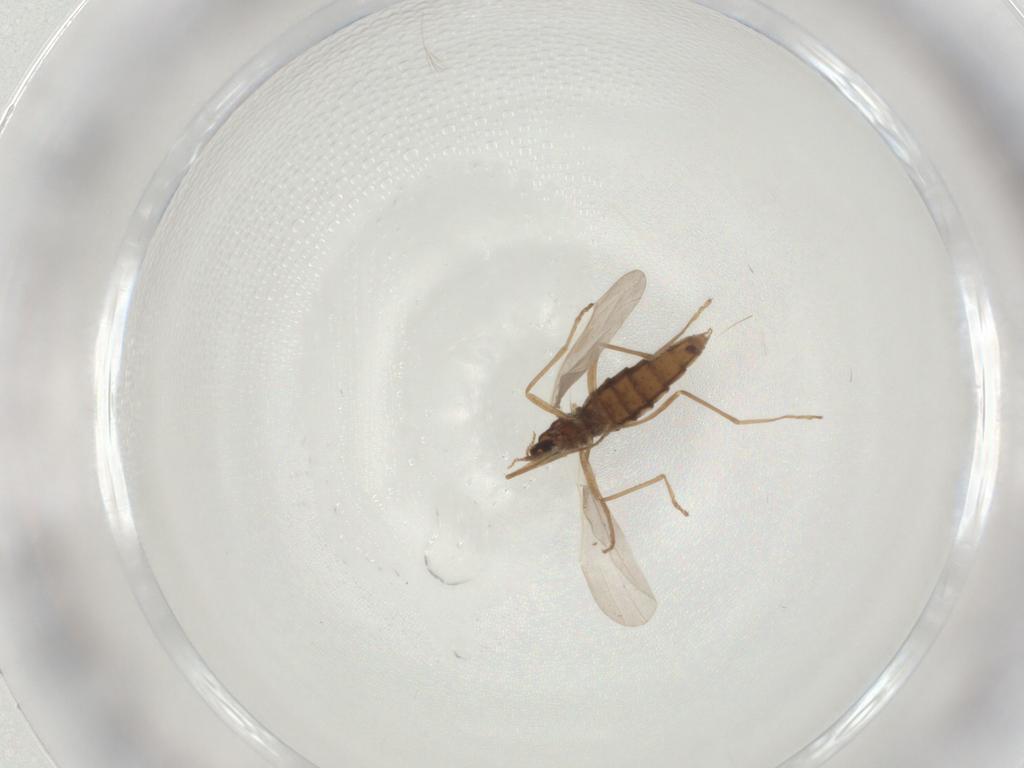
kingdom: Animalia
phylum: Arthropoda
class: Insecta
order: Diptera
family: Cecidomyiidae
